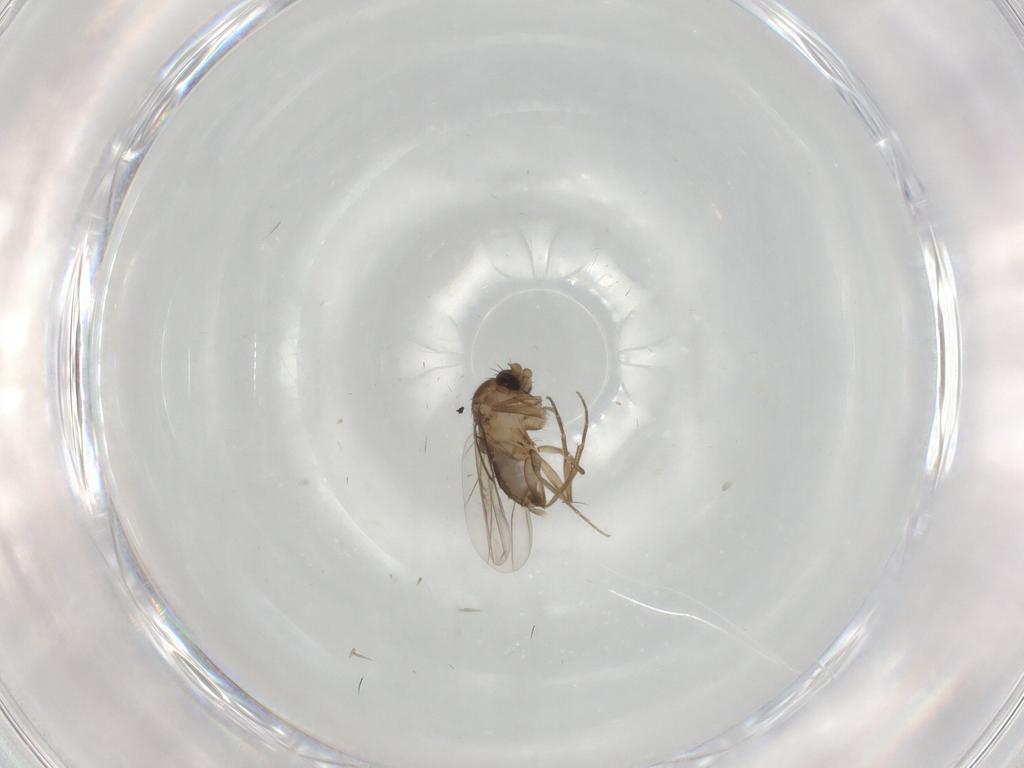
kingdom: Animalia
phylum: Arthropoda
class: Insecta
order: Diptera
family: Phoridae
